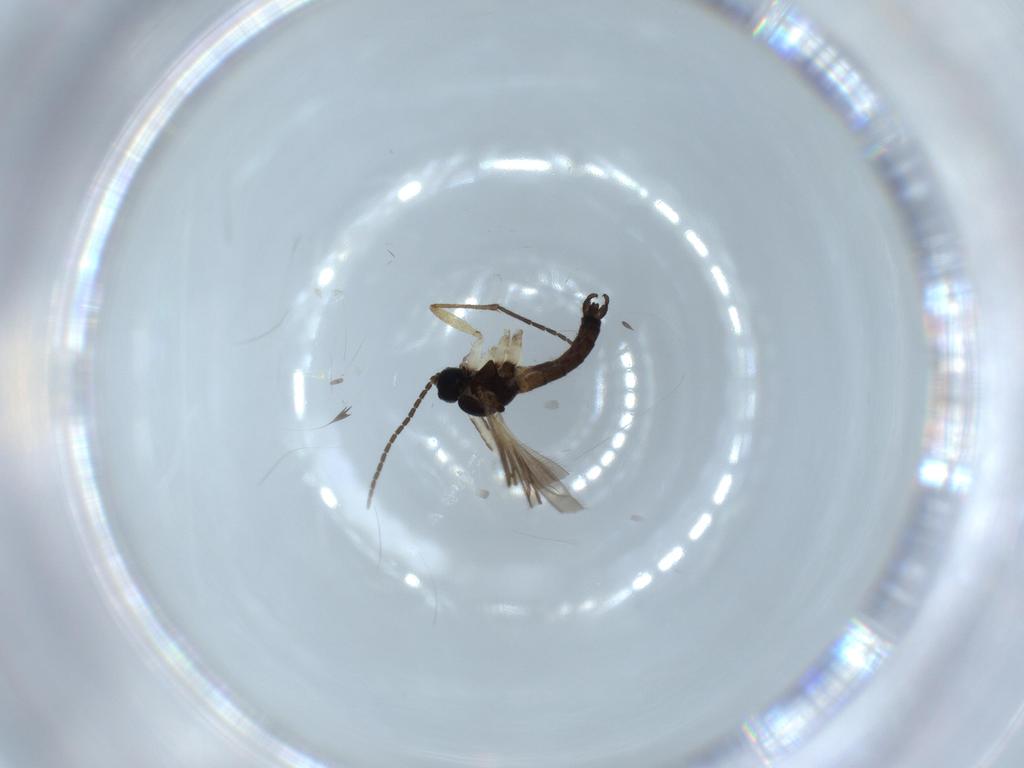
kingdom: Animalia
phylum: Arthropoda
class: Insecta
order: Diptera
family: Sciaridae
